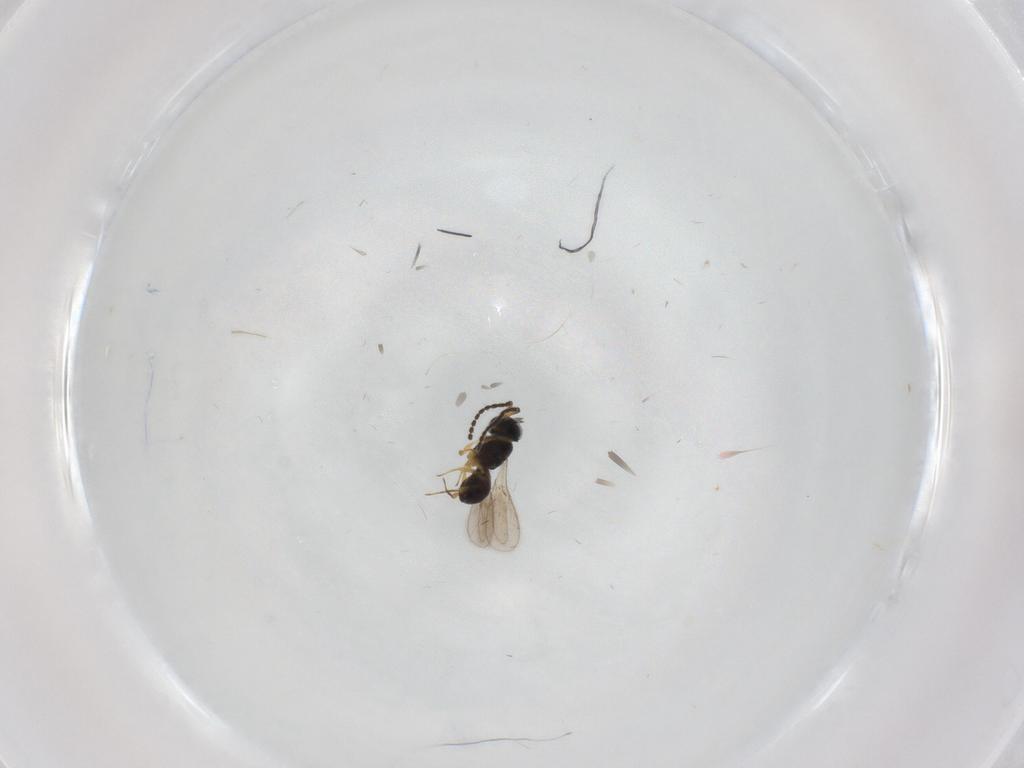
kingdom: Animalia
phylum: Arthropoda
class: Insecta
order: Hymenoptera
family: Scelionidae
